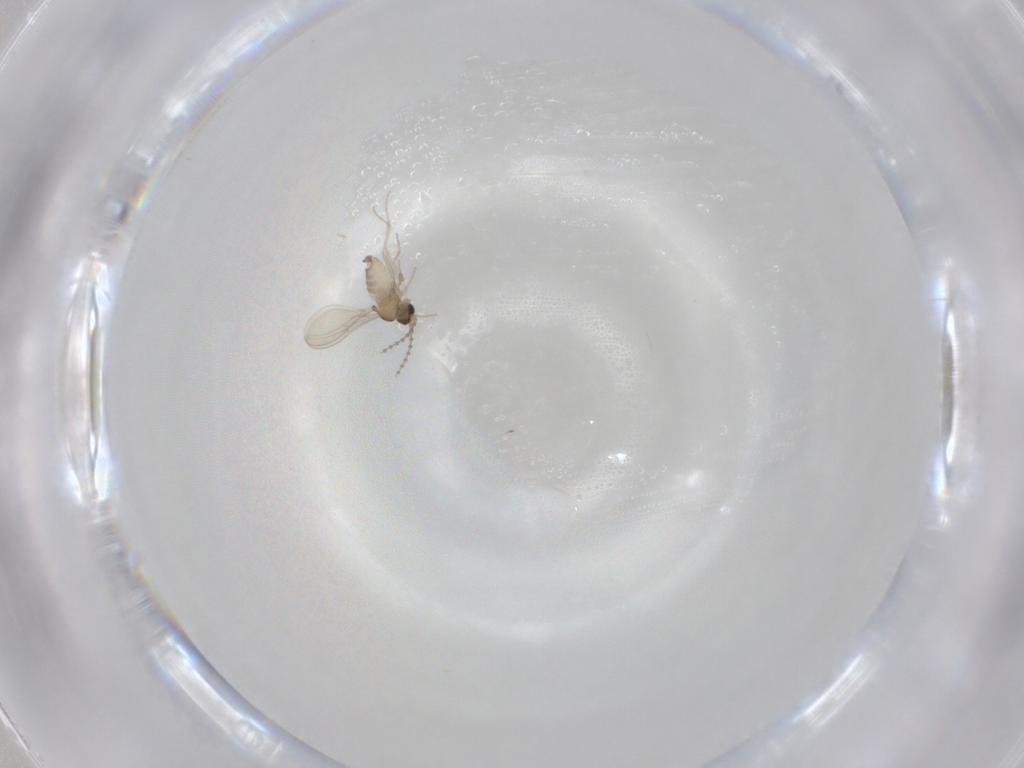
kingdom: Animalia
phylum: Arthropoda
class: Insecta
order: Diptera
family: Cecidomyiidae
